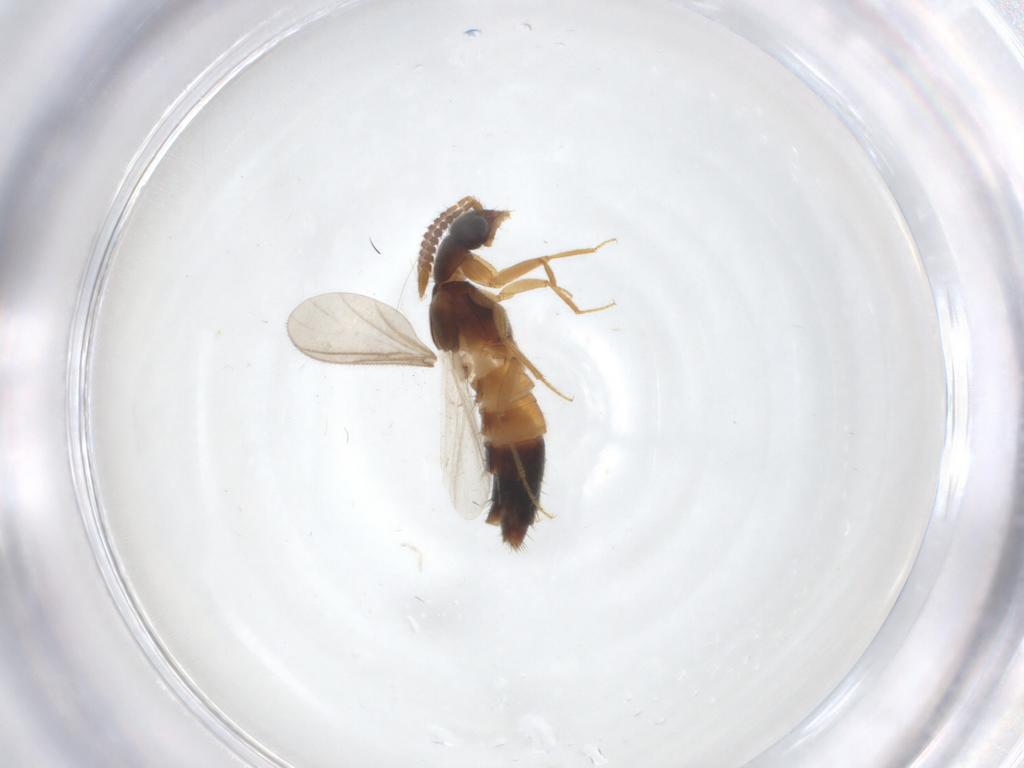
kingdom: Animalia
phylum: Arthropoda
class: Insecta
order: Coleoptera
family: Staphylinidae
